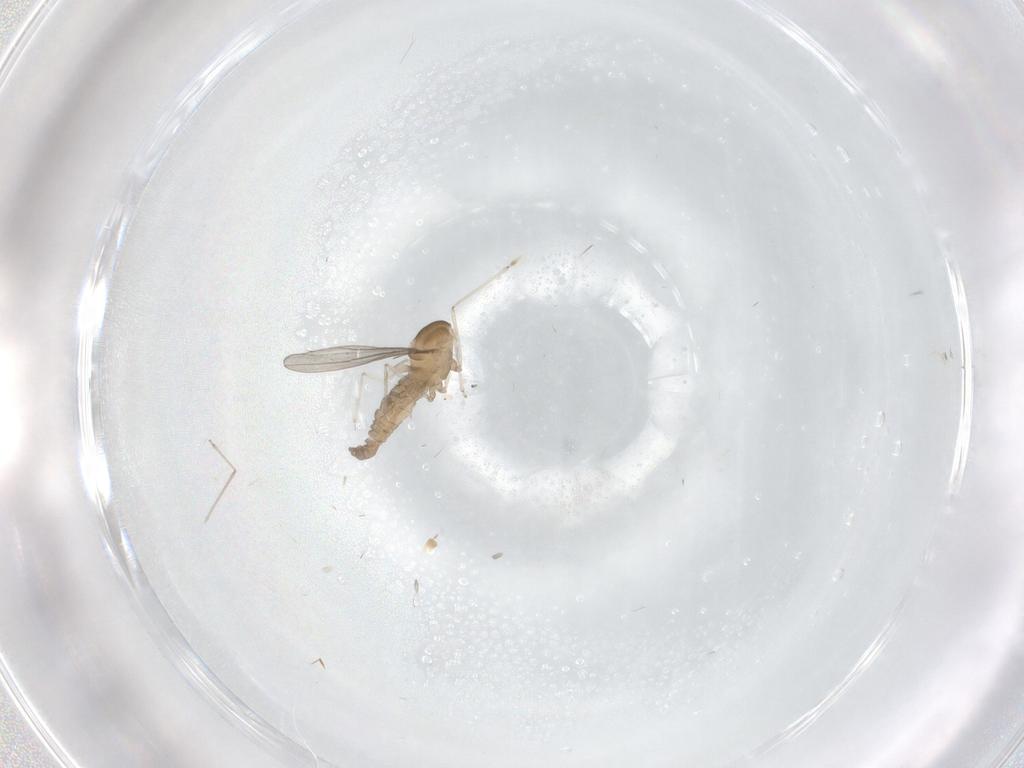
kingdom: Animalia
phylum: Arthropoda
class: Insecta
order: Diptera
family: Cecidomyiidae
